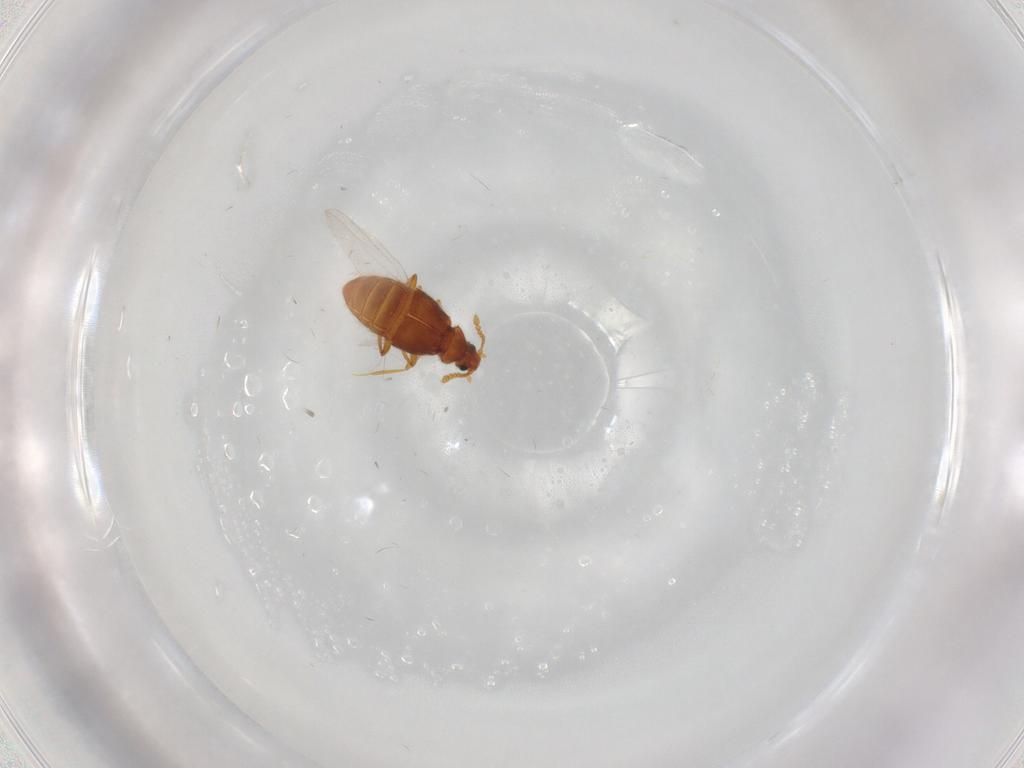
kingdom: Animalia
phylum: Arthropoda
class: Insecta
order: Coleoptera
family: Staphylinidae
